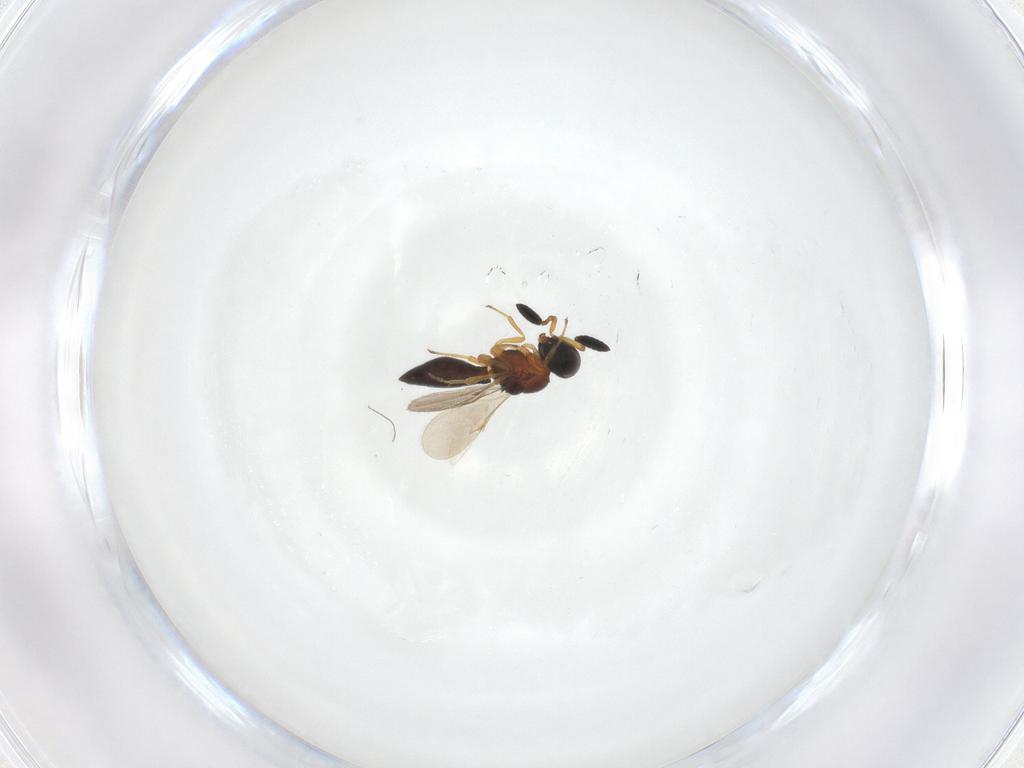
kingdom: Animalia
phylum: Arthropoda
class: Insecta
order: Hymenoptera
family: Scelionidae
